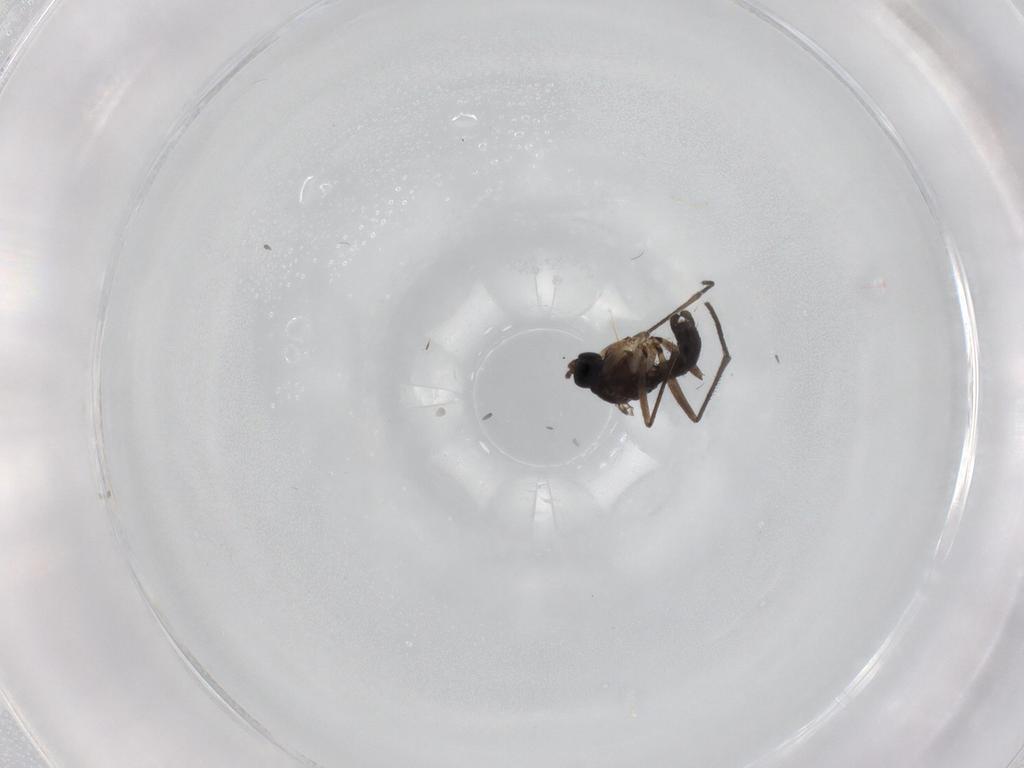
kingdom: Animalia
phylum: Arthropoda
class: Insecta
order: Diptera
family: Sciaridae
